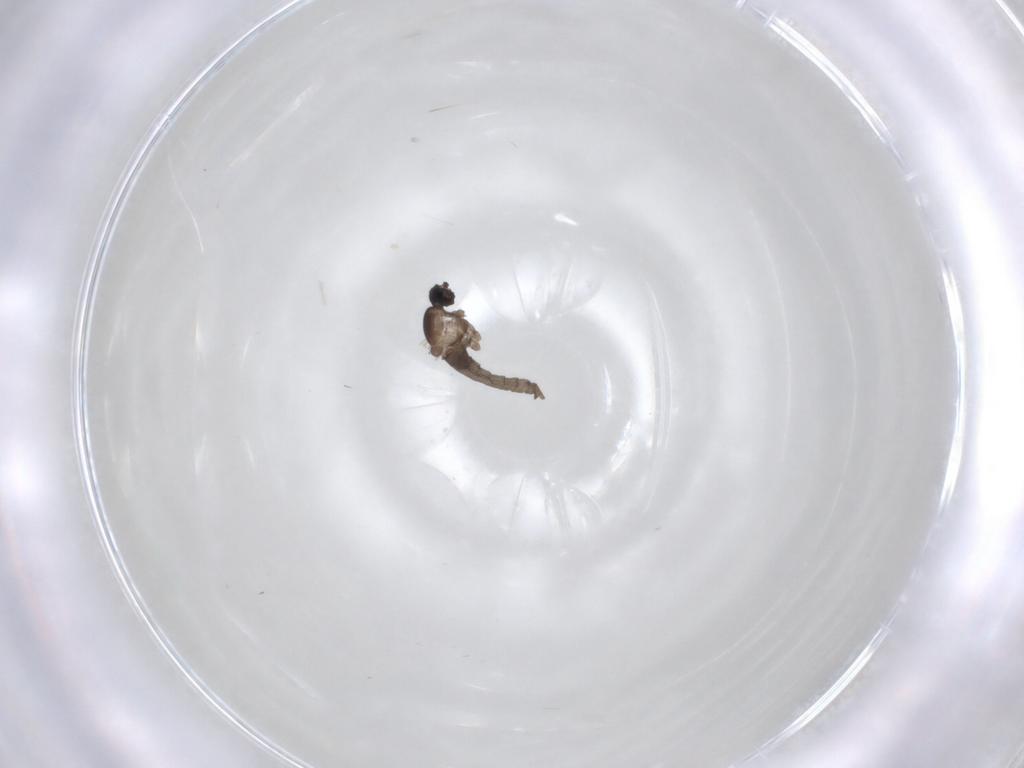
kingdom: Animalia
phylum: Arthropoda
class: Insecta
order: Diptera
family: Cecidomyiidae
